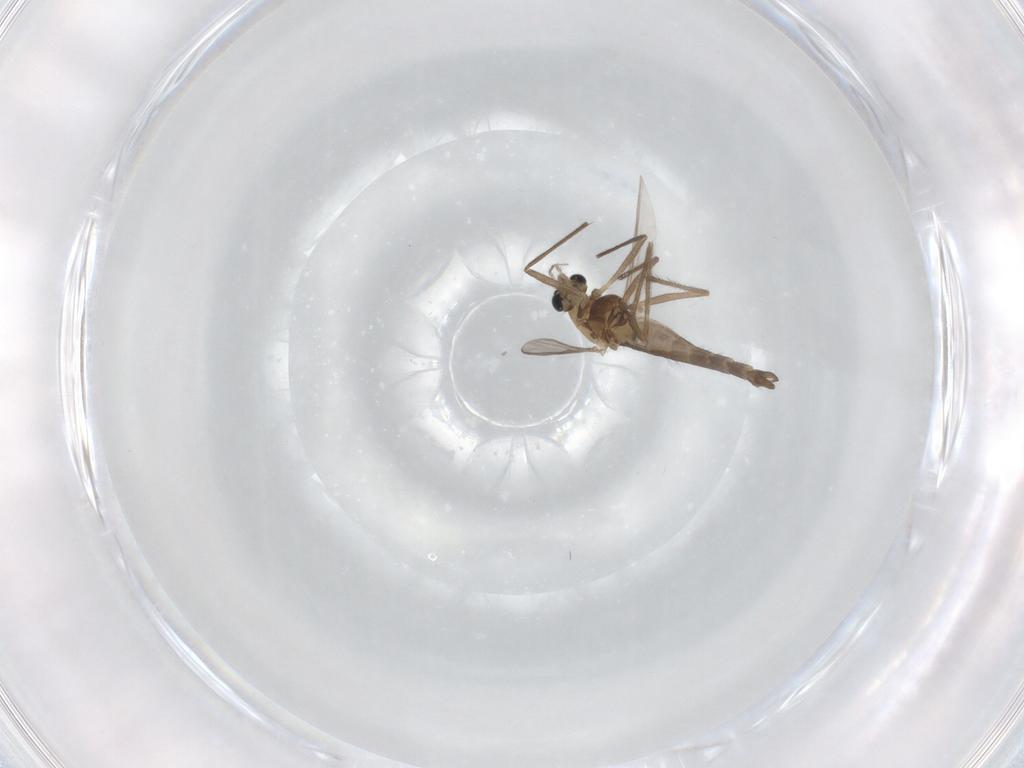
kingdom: Animalia
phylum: Arthropoda
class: Insecta
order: Diptera
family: Chironomidae
